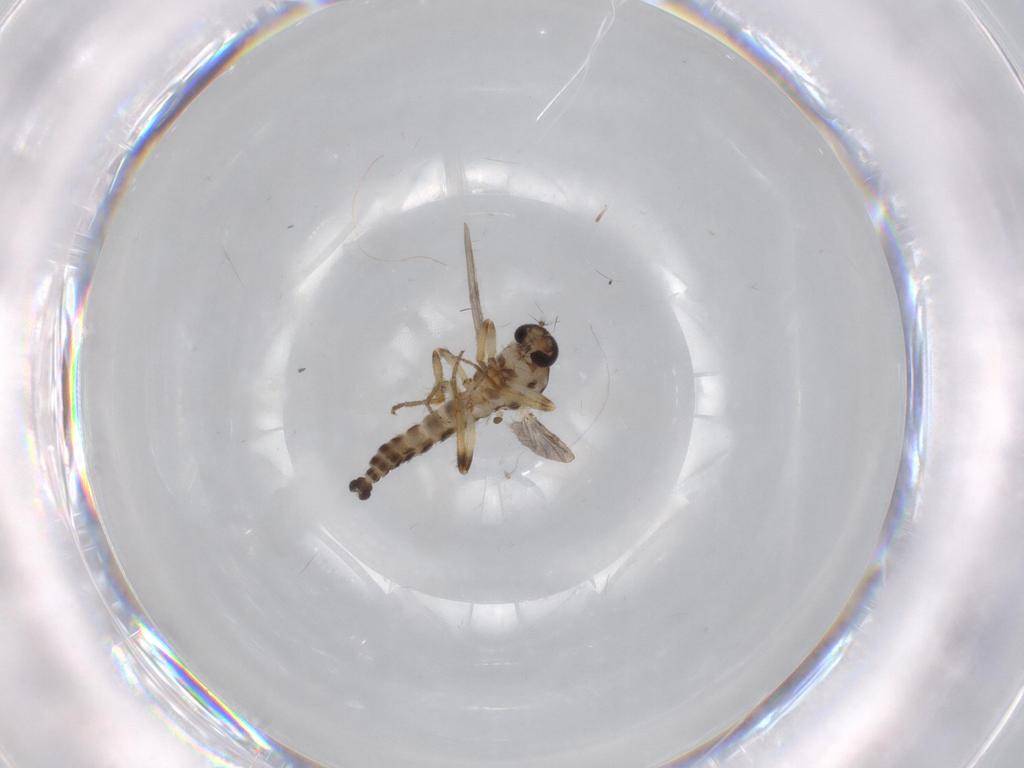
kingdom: Animalia
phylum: Arthropoda
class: Insecta
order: Diptera
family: Ceratopogonidae
